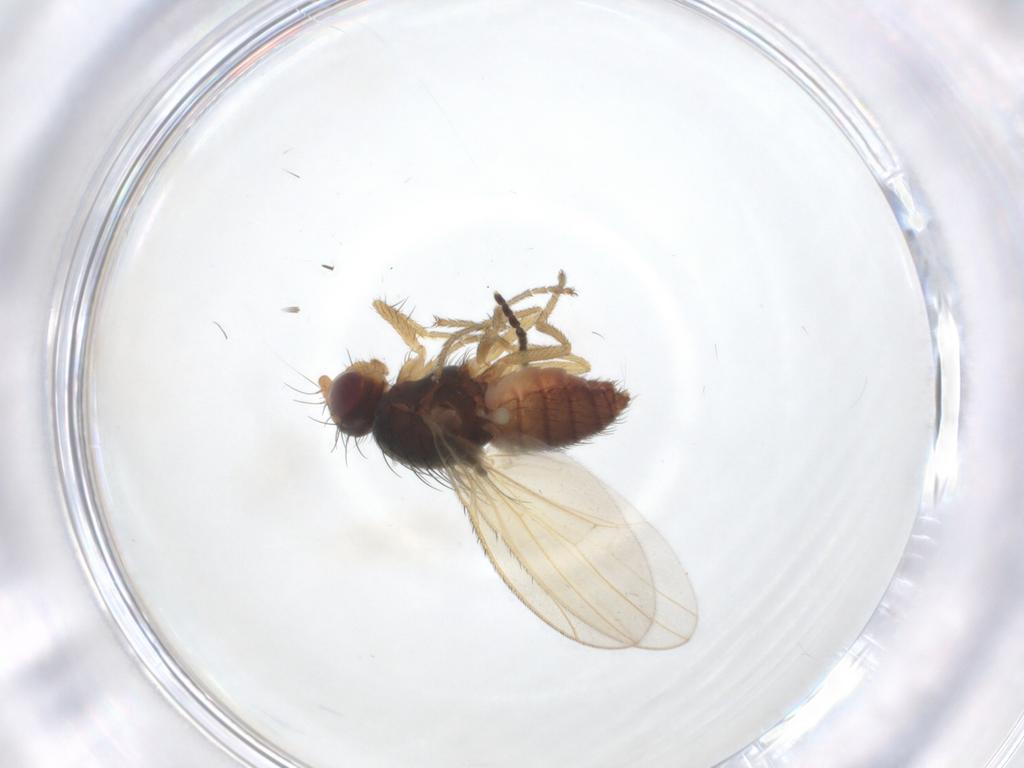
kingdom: Animalia
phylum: Arthropoda
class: Insecta
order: Diptera
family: Heleomyzidae
